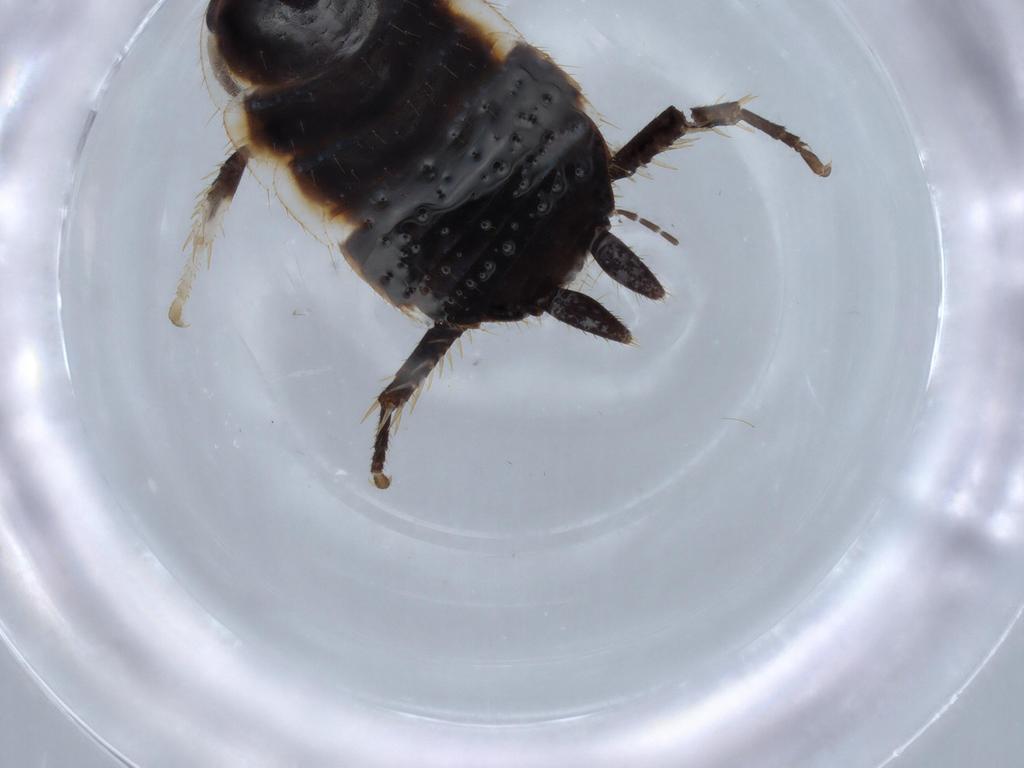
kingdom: Animalia
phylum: Arthropoda
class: Insecta
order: Blattodea
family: Ectobiidae
